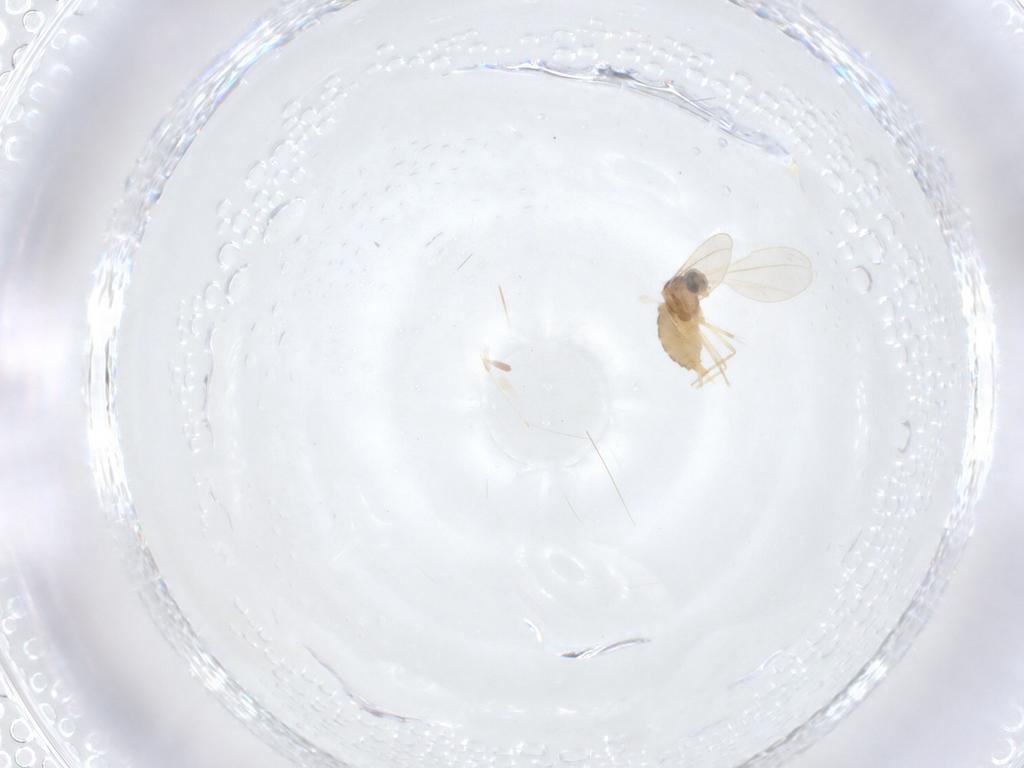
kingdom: Animalia
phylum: Arthropoda
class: Insecta
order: Diptera
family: Cecidomyiidae
